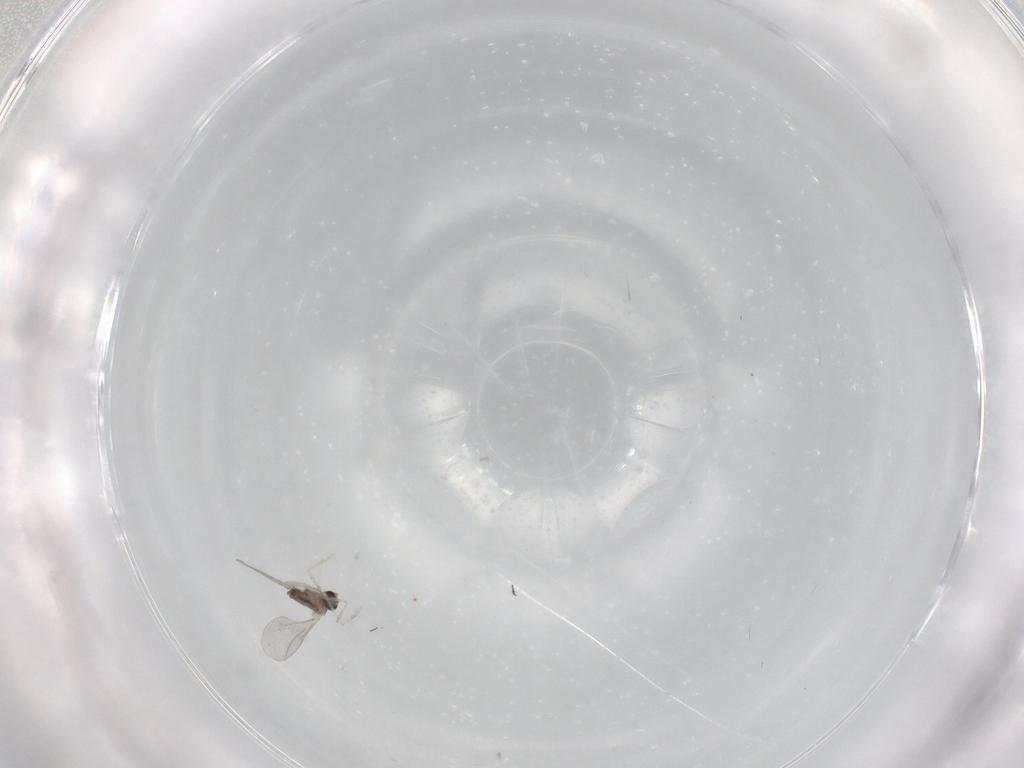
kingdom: Animalia
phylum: Arthropoda
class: Insecta
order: Diptera
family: Cecidomyiidae
